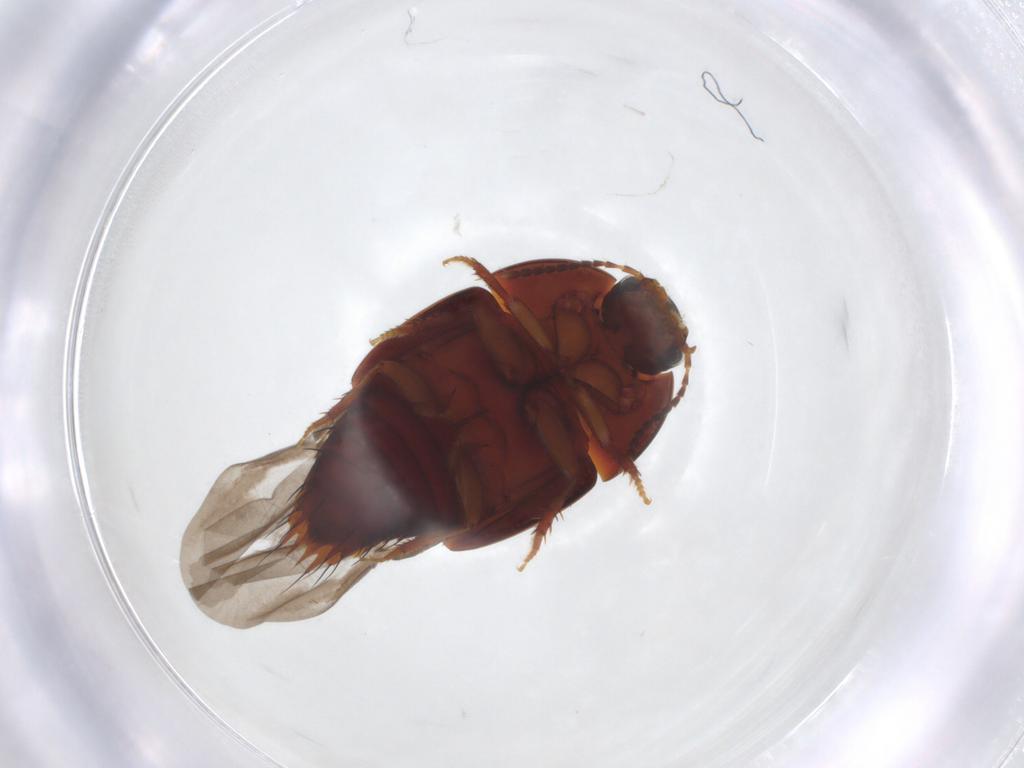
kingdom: Animalia
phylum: Arthropoda
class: Insecta
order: Coleoptera
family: Staphylinidae
